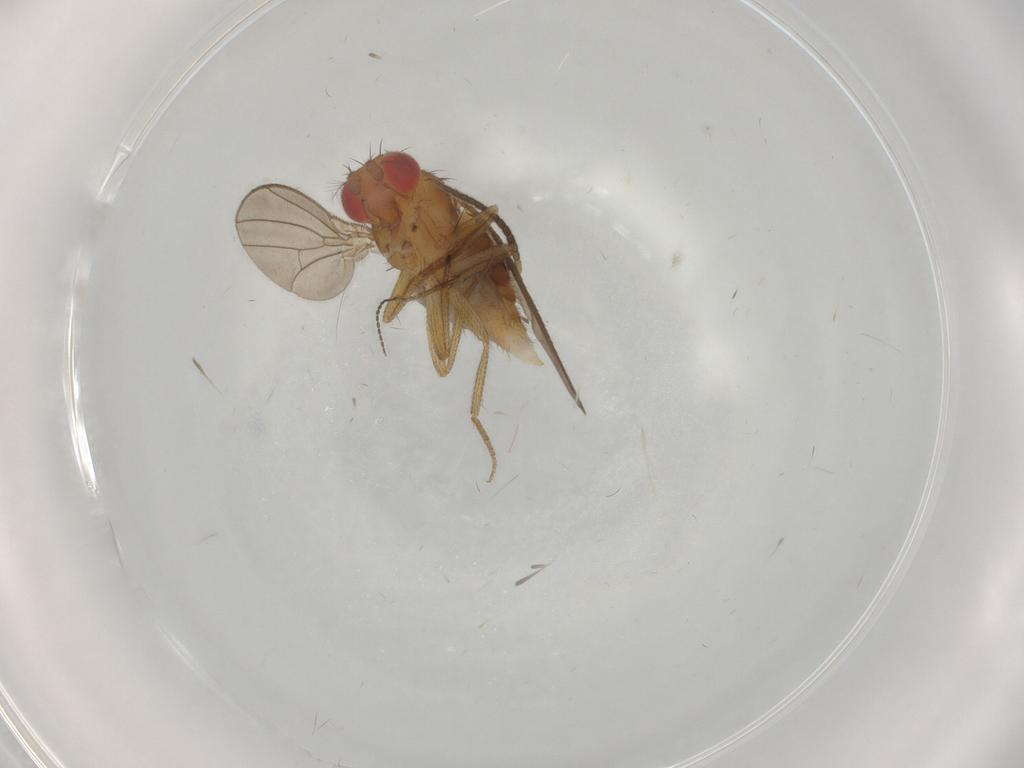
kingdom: Animalia
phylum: Arthropoda
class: Insecta
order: Diptera
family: Drosophilidae
